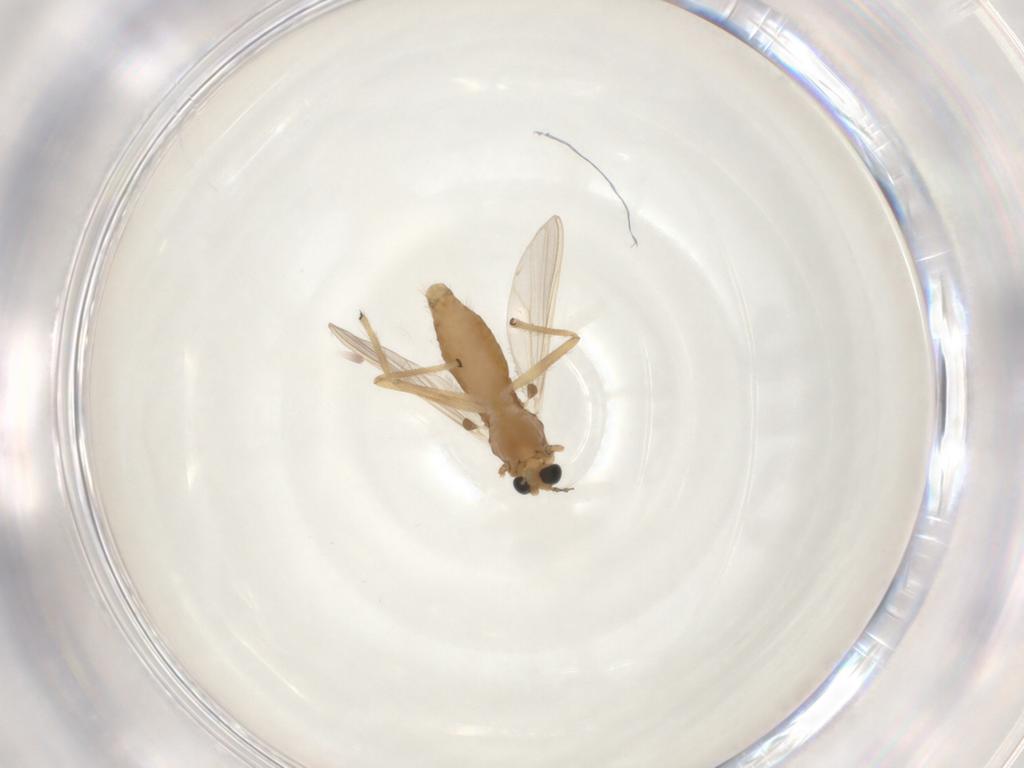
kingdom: Animalia
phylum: Arthropoda
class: Insecta
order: Diptera
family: Chironomidae
